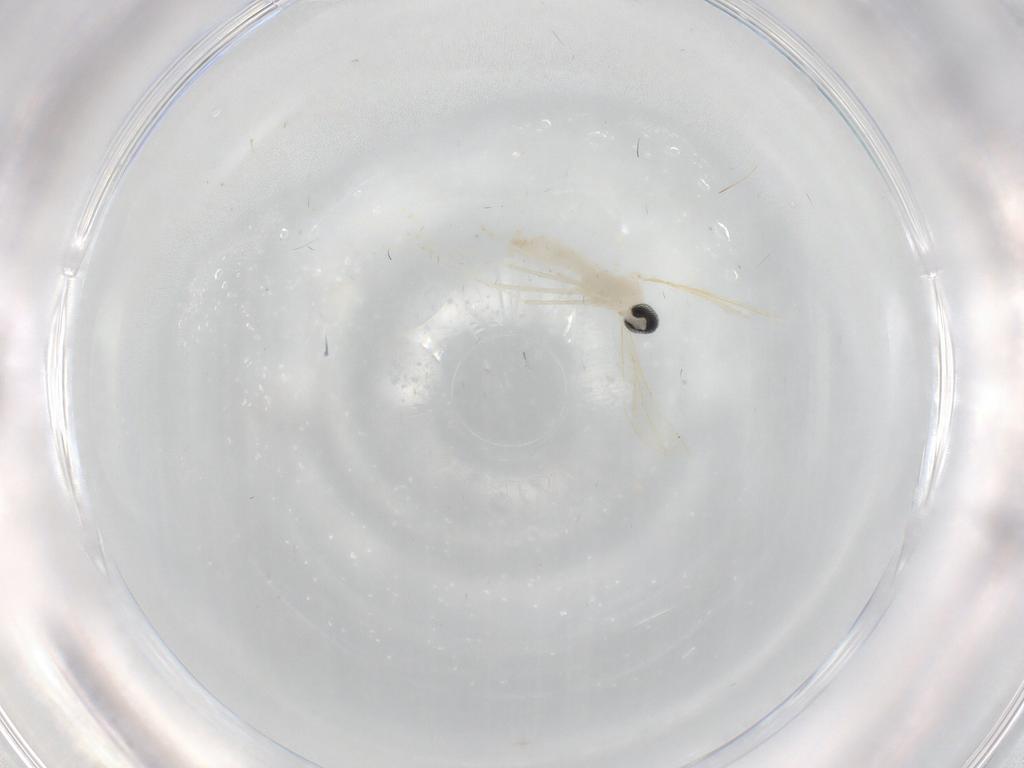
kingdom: Animalia
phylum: Arthropoda
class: Insecta
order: Diptera
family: Cecidomyiidae
